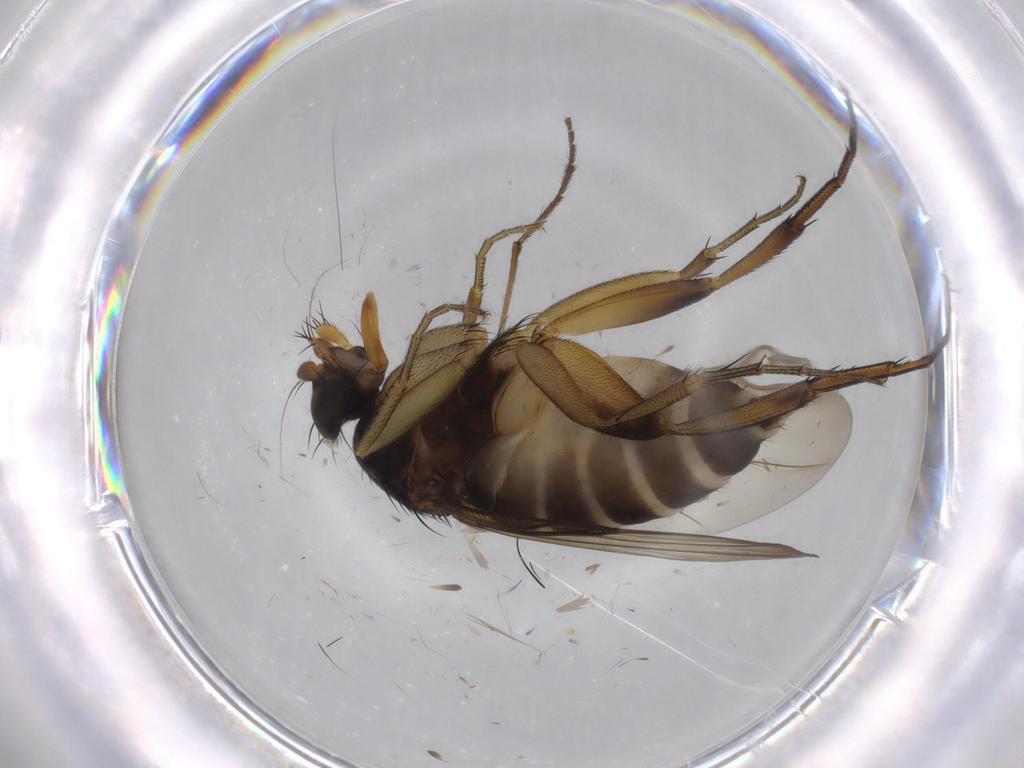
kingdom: Animalia
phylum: Arthropoda
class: Insecta
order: Diptera
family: Phoridae
